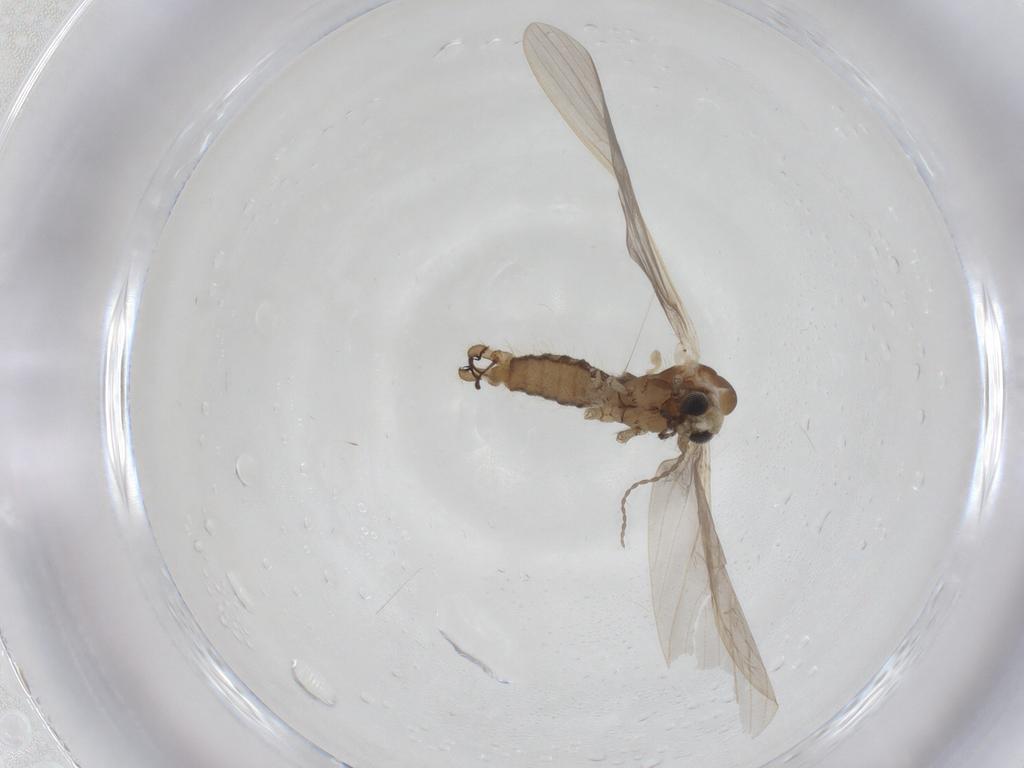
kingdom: Animalia
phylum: Arthropoda
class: Insecta
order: Diptera
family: Limoniidae
